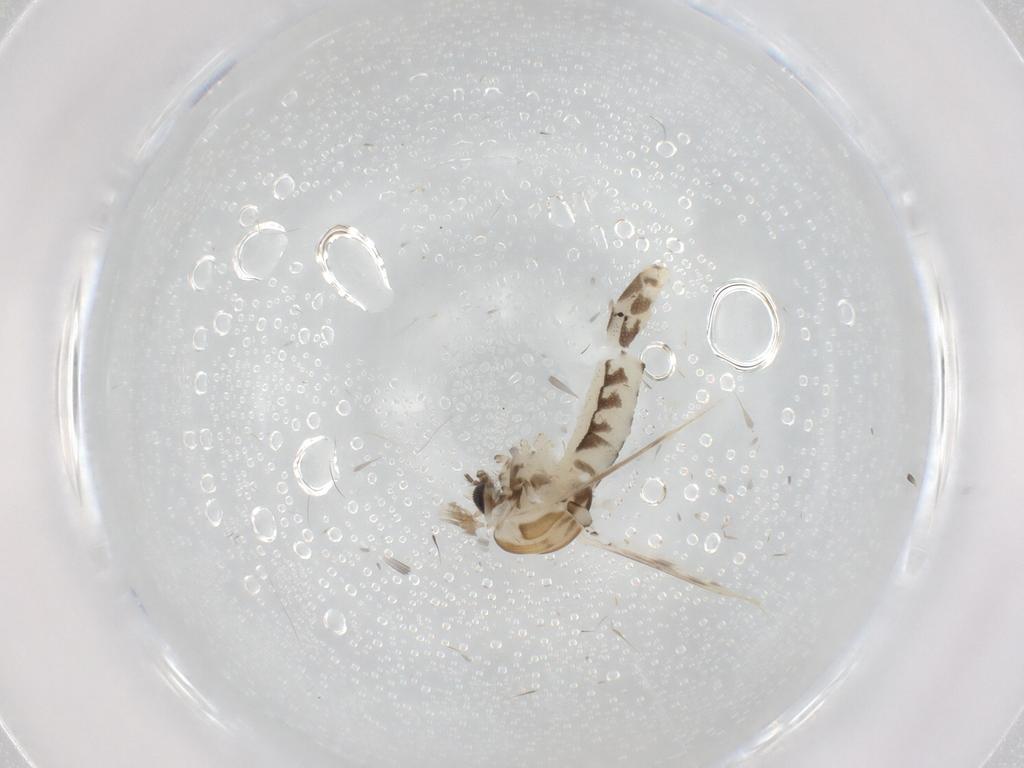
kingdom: Animalia
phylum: Arthropoda
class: Insecta
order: Diptera
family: Corethrellidae
